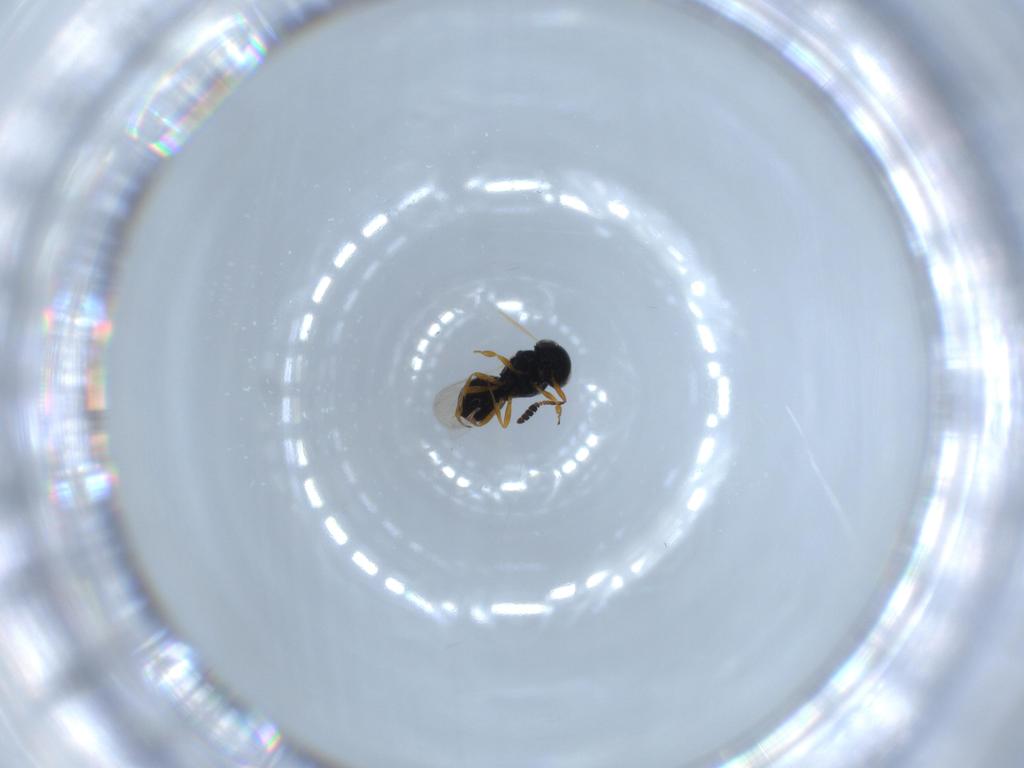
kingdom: Animalia
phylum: Arthropoda
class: Insecta
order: Hymenoptera
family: Scelionidae
